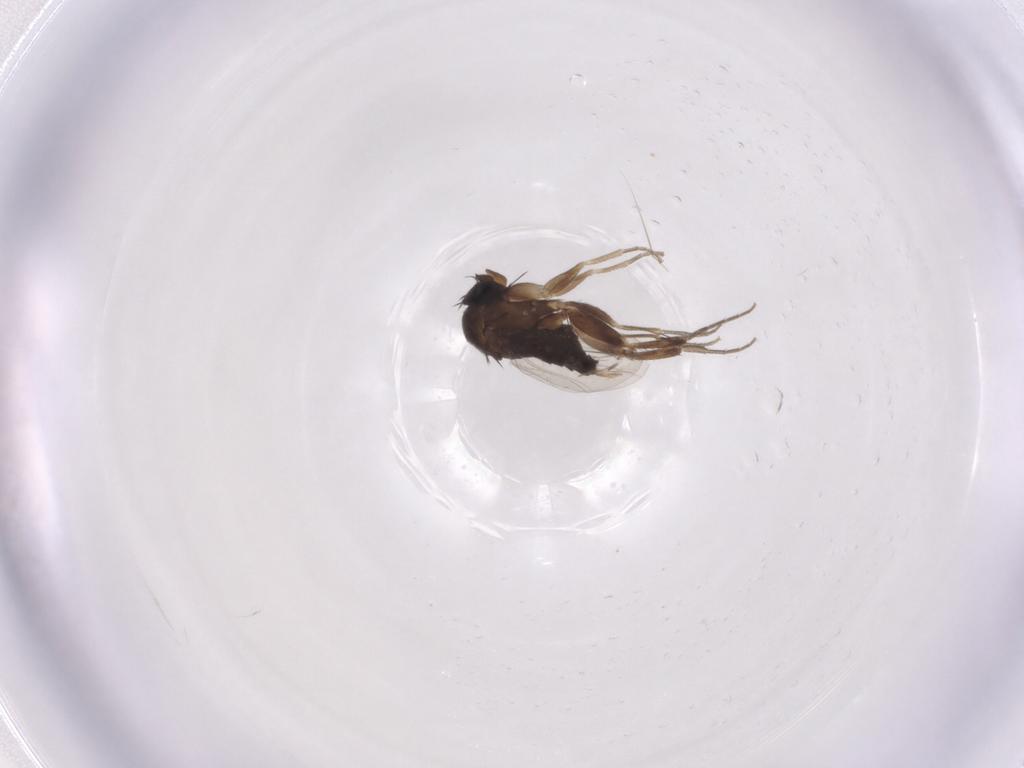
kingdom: Animalia
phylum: Arthropoda
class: Insecta
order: Diptera
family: Phoridae
